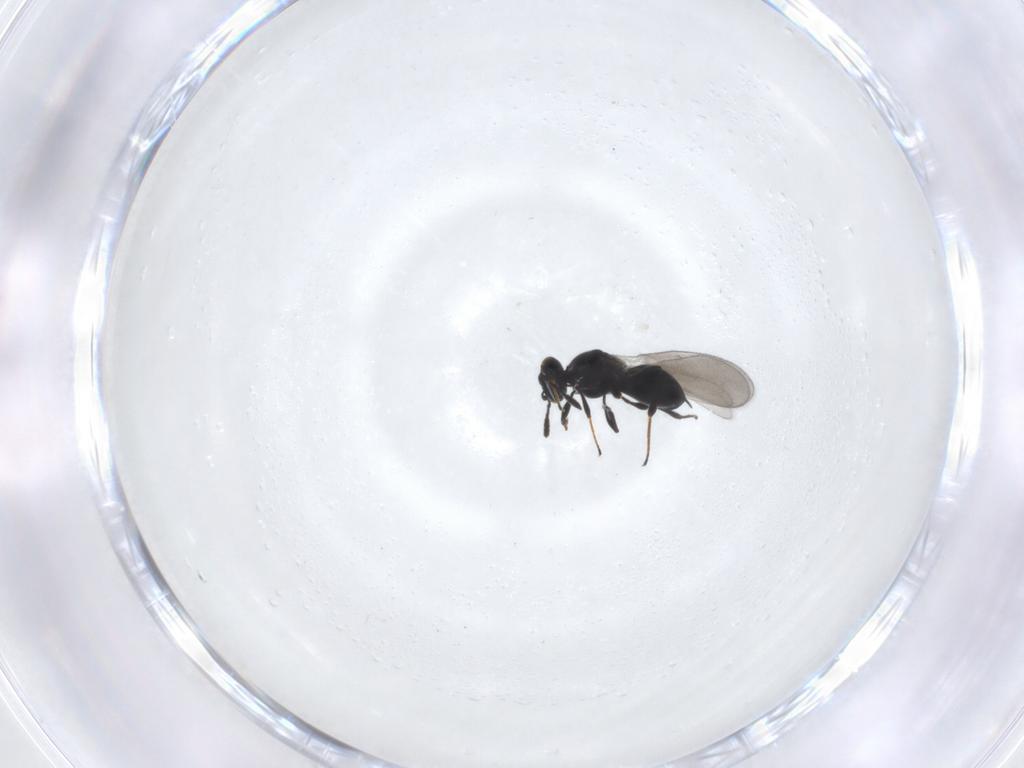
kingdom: Animalia
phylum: Arthropoda
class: Insecta
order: Hymenoptera
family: Platygastridae
